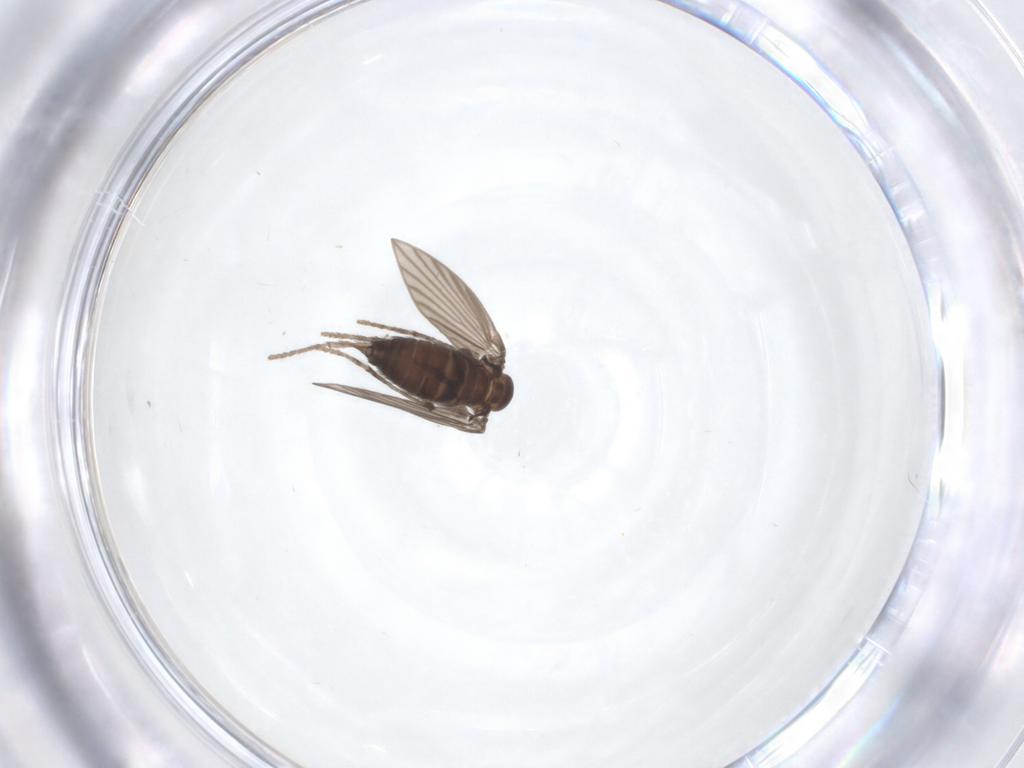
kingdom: Animalia
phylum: Arthropoda
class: Insecta
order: Diptera
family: Psychodidae
